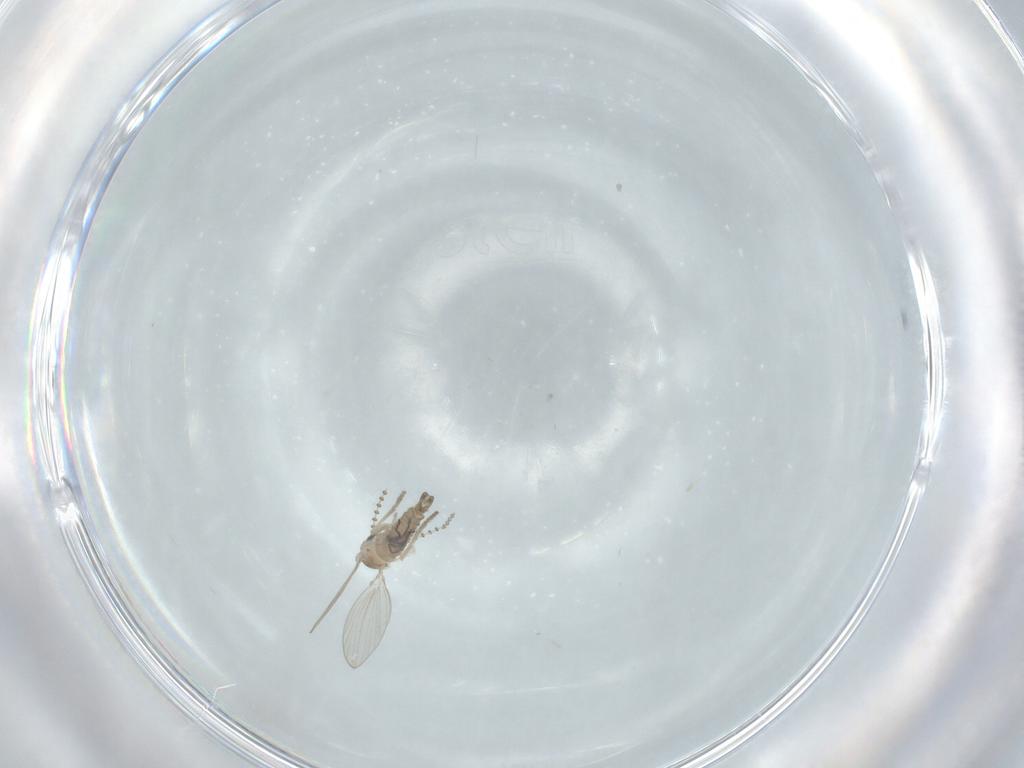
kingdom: Animalia
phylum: Arthropoda
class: Insecta
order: Diptera
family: Psychodidae
